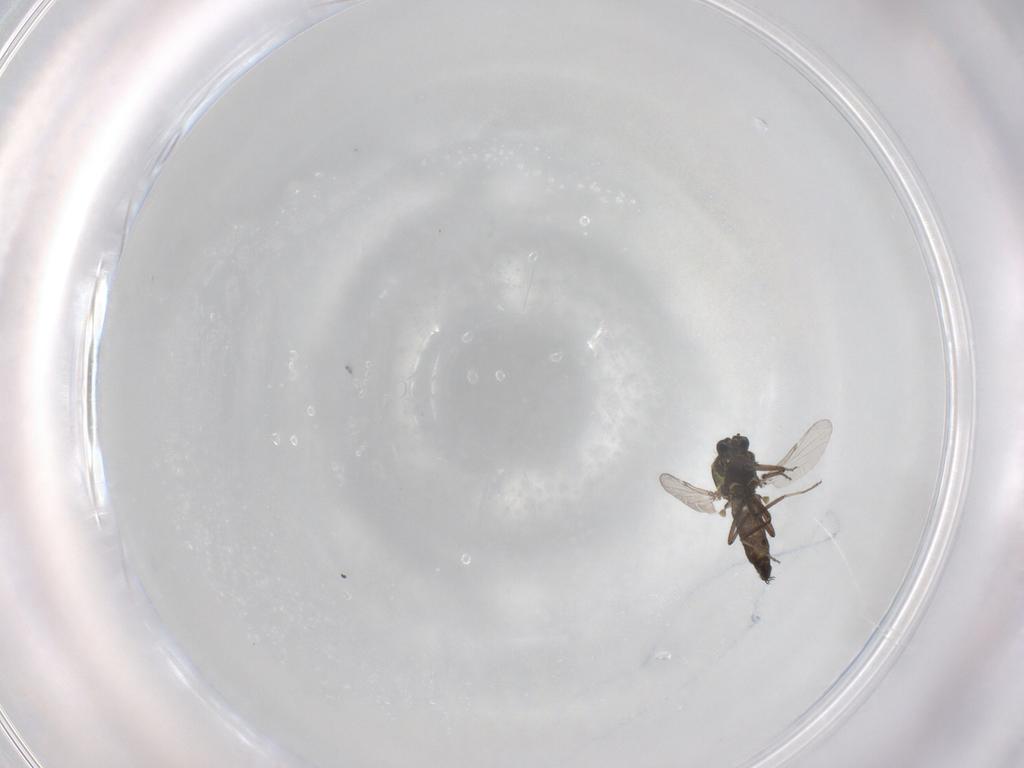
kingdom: Animalia
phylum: Arthropoda
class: Insecta
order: Diptera
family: Ceratopogonidae
